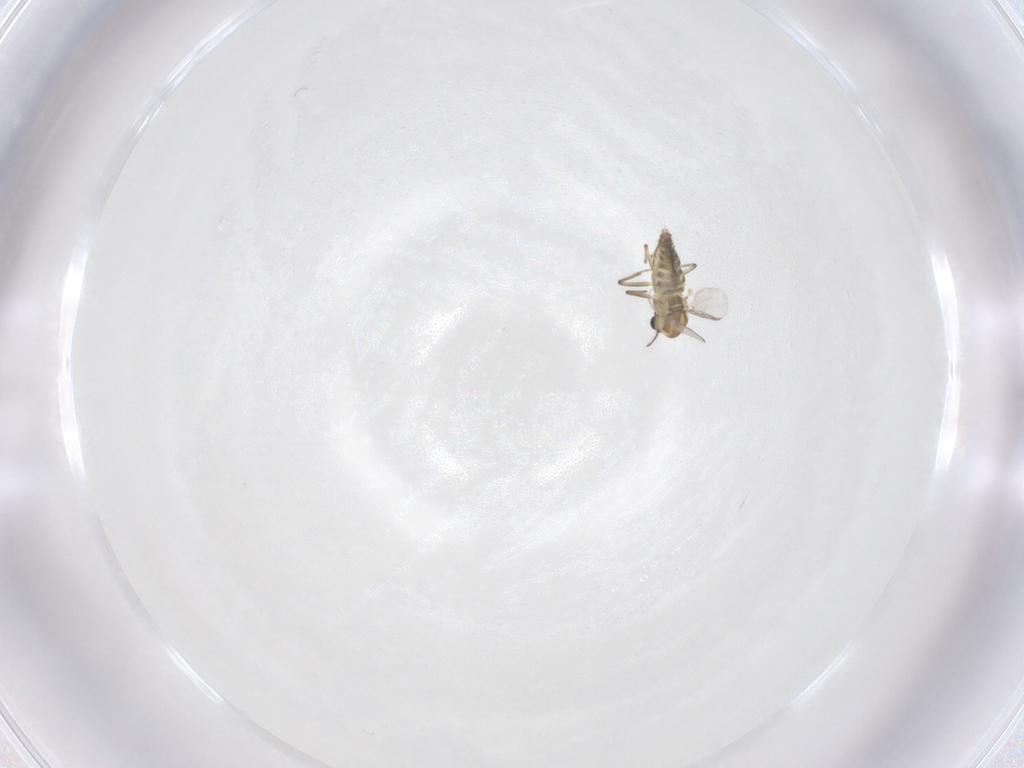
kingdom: Animalia
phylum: Arthropoda
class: Insecta
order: Diptera
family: Chironomidae
